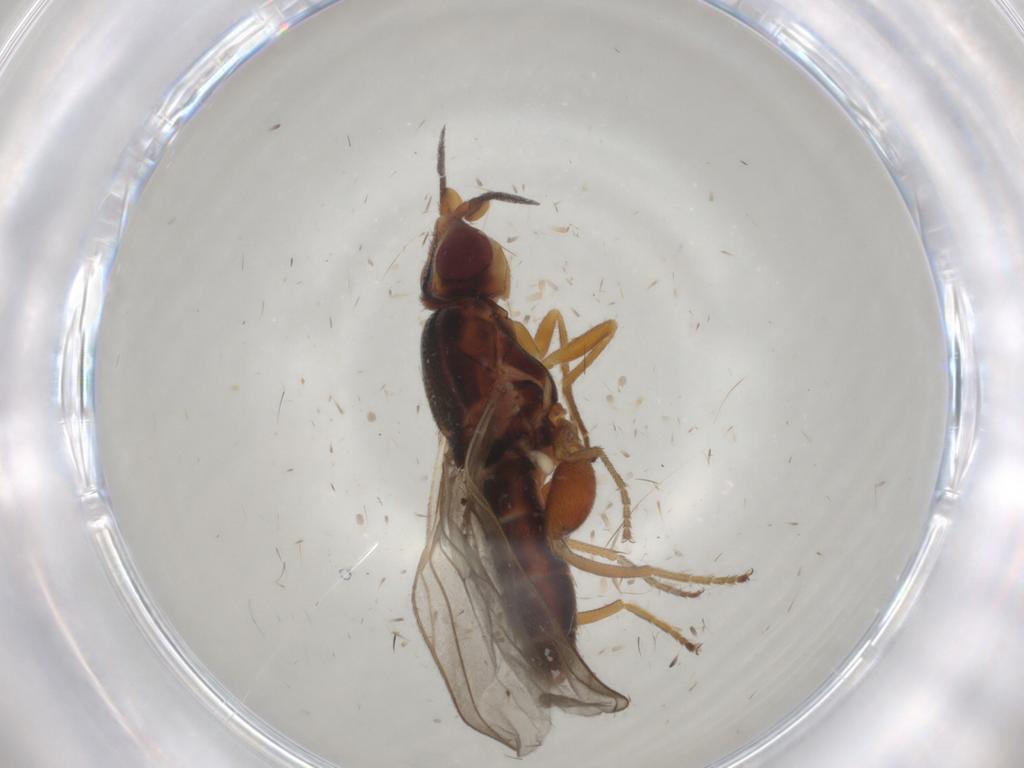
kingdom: Animalia
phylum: Arthropoda
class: Insecta
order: Diptera
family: Chloropidae
